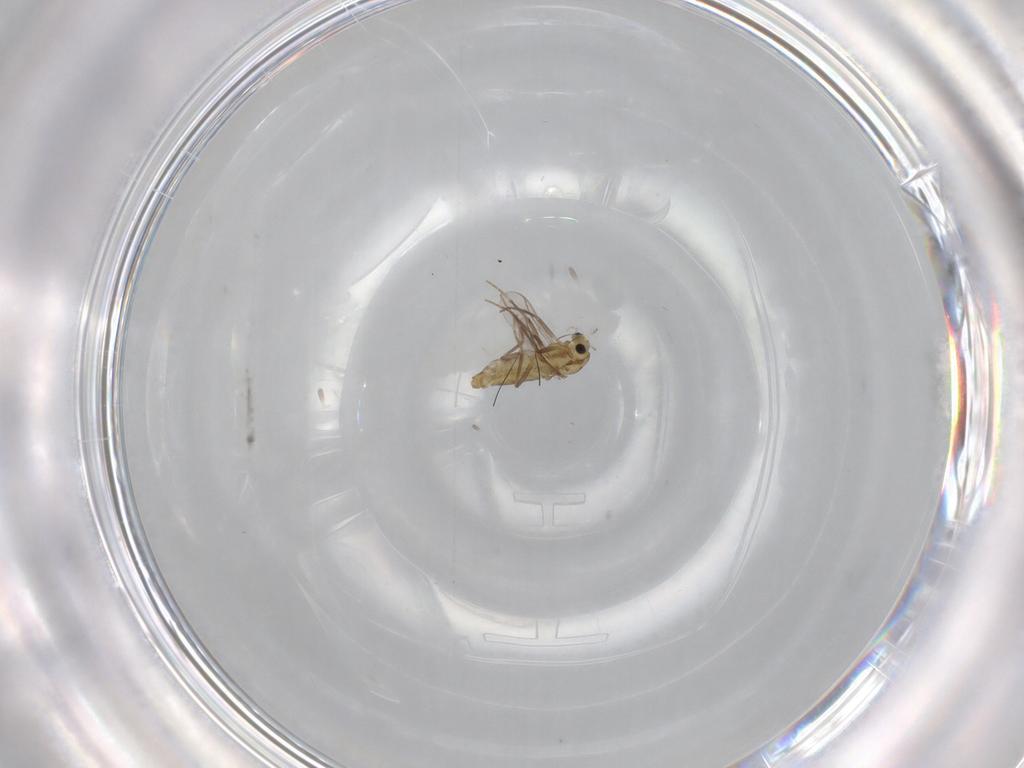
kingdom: Animalia
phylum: Arthropoda
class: Insecta
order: Diptera
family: Chironomidae
